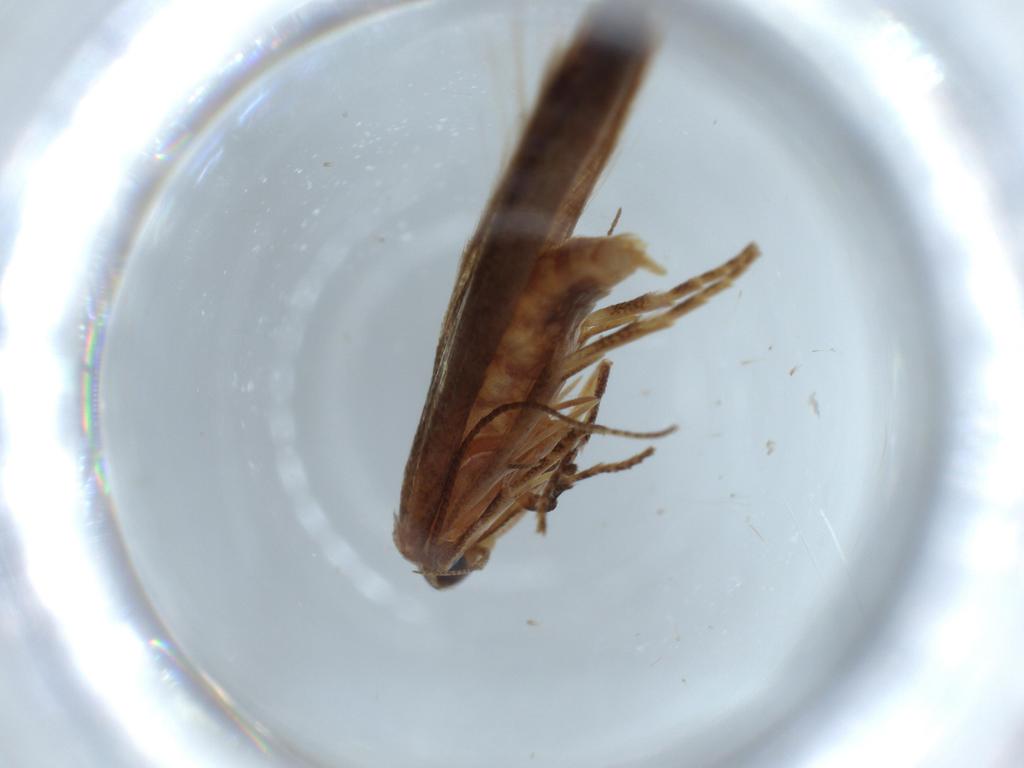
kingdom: Animalia
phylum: Arthropoda
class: Insecta
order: Lepidoptera
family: Stathmopodidae
